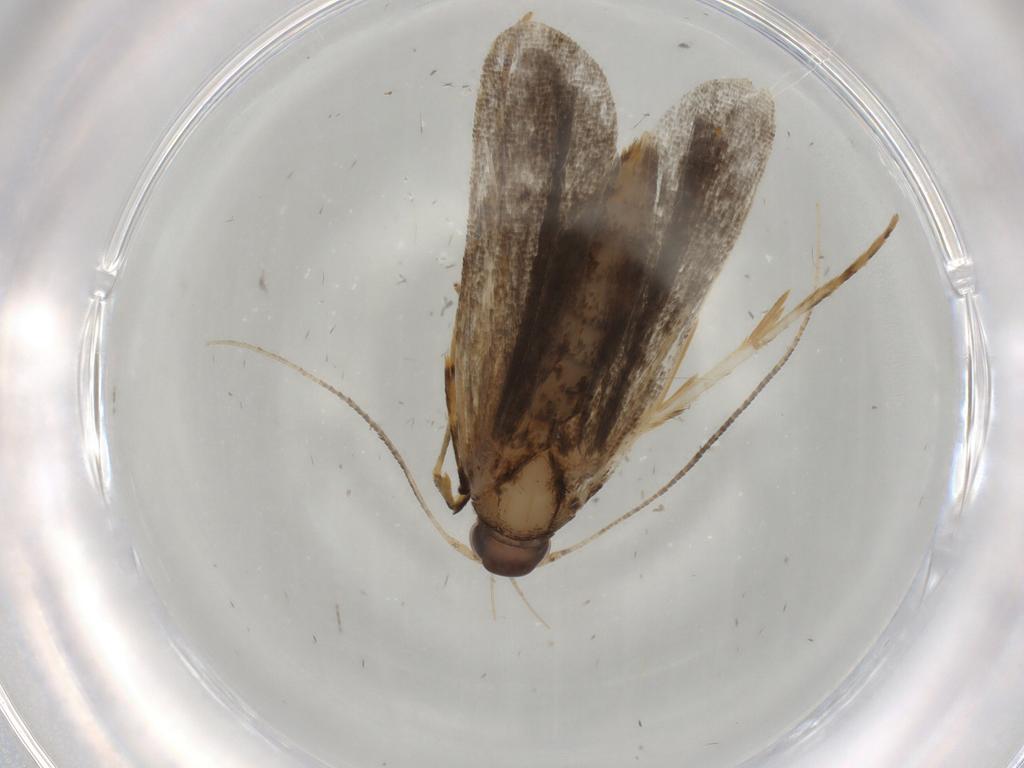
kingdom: Animalia
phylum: Arthropoda
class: Insecta
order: Lepidoptera
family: Cosmopterigidae
